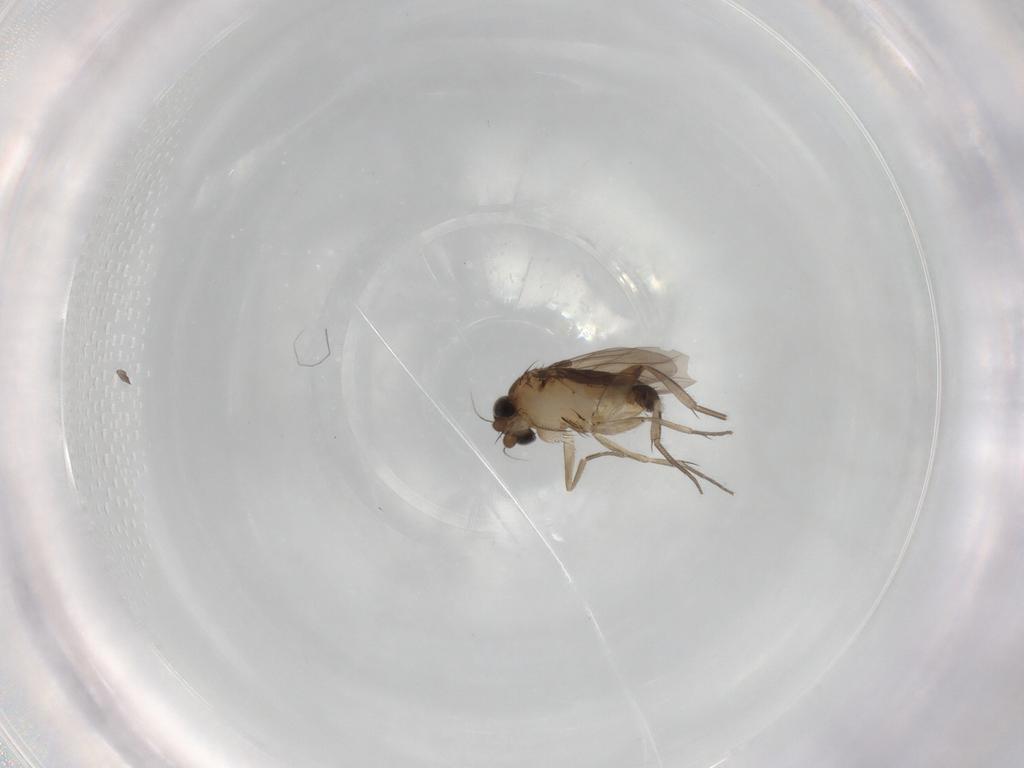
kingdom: Animalia
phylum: Arthropoda
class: Insecta
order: Diptera
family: Phoridae
